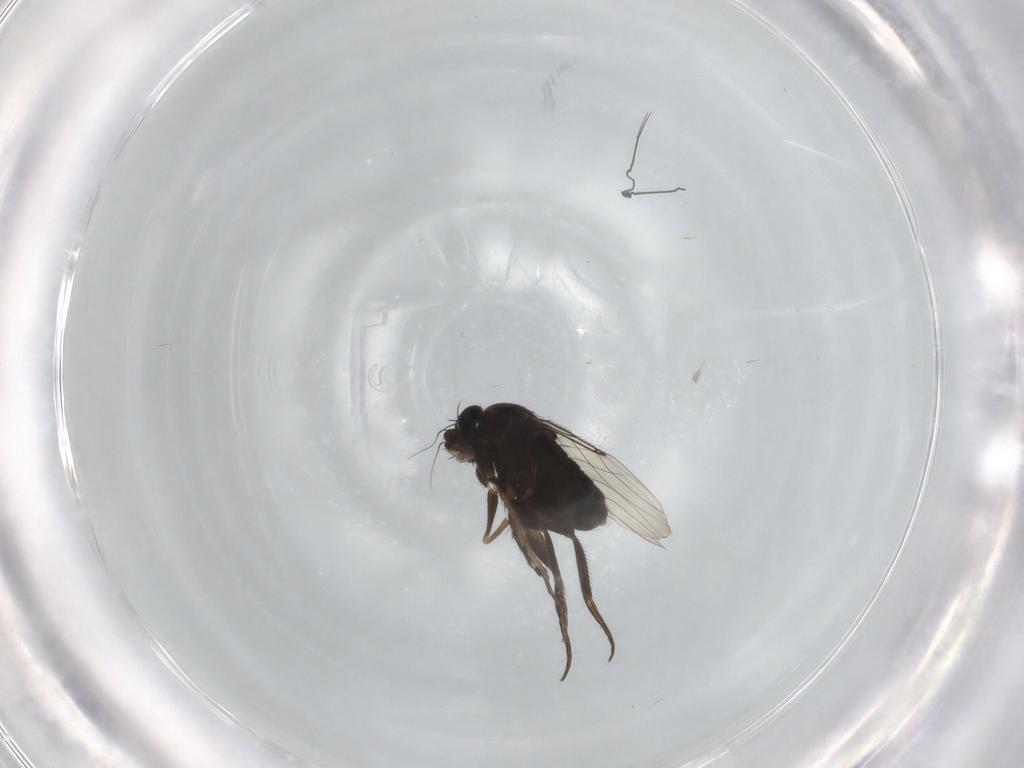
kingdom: Animalia
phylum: Arthropoda
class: Insecta
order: Diptera
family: Phoridae
